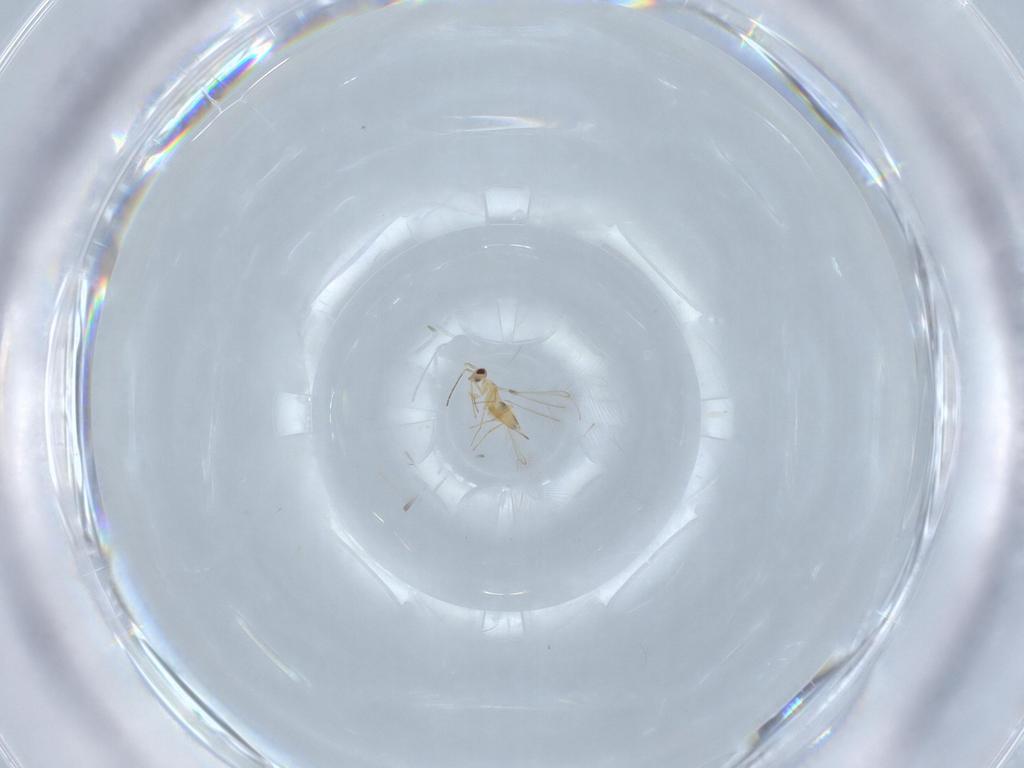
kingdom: Animalia
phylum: Arthropoda
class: Insecta
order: Hymenoptera
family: Mymaridae
